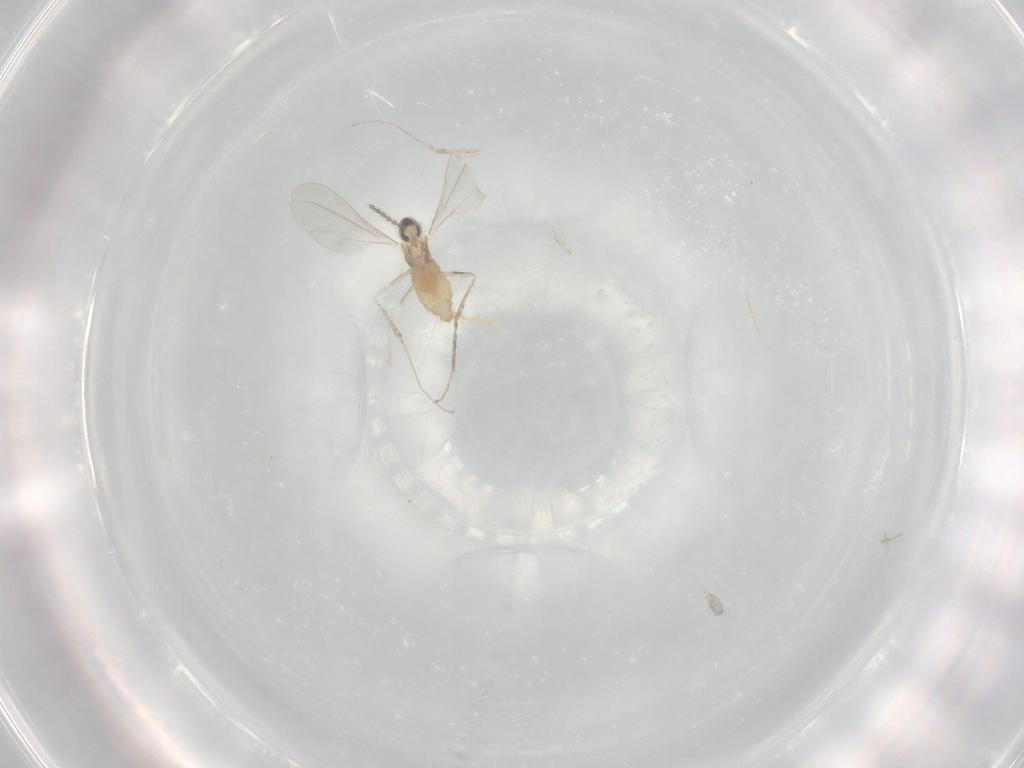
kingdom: Animalia
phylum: Arthropoda
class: Insecta
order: Diptera
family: Cecidomyiidae
